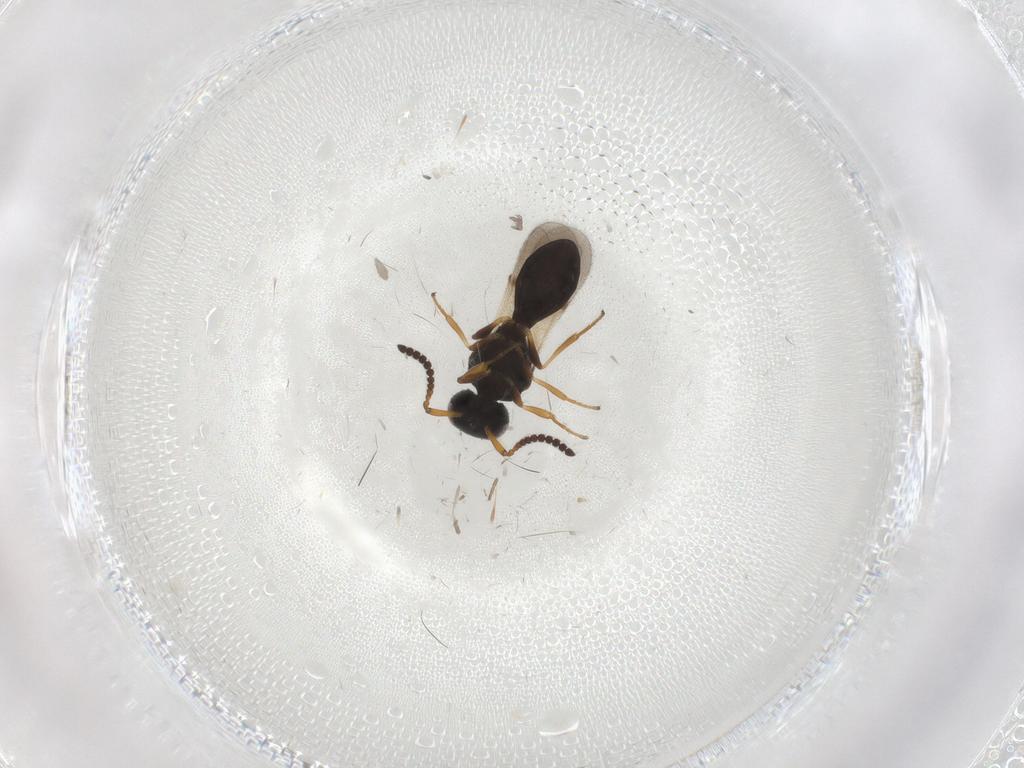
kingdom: Animalia
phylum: Arthropoda
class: Insecta
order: Hymenoptera
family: Scelionidae
